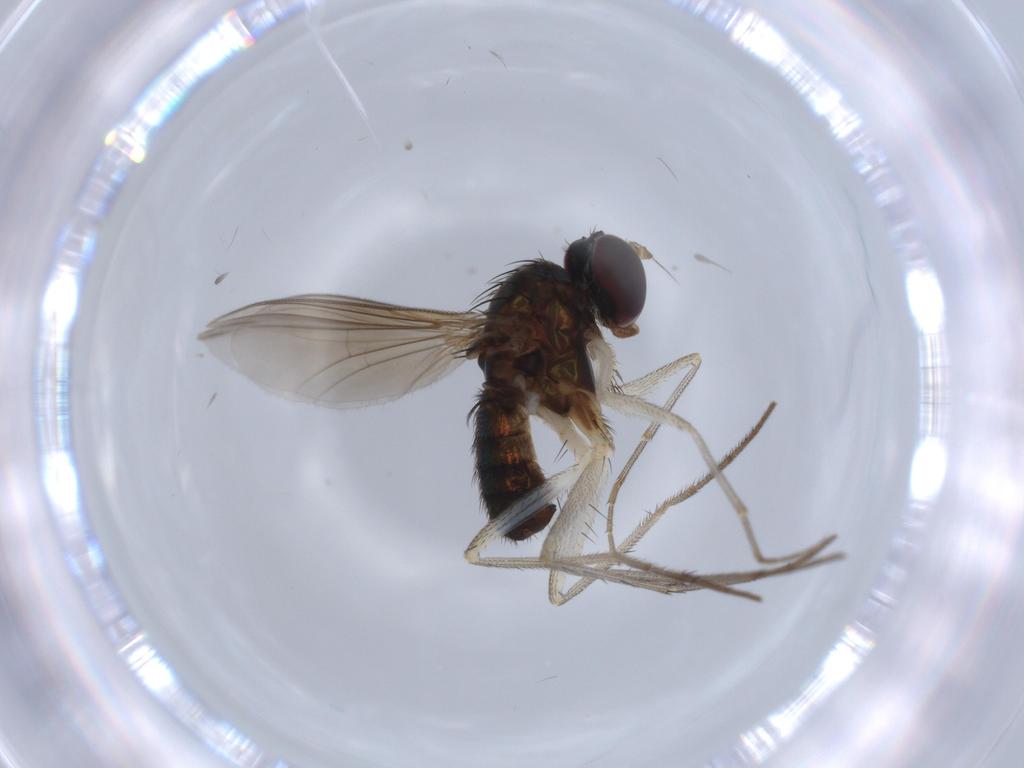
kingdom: Animalia
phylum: Arthropoda
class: Insecta
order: Diptera
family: Dolichopodidae
